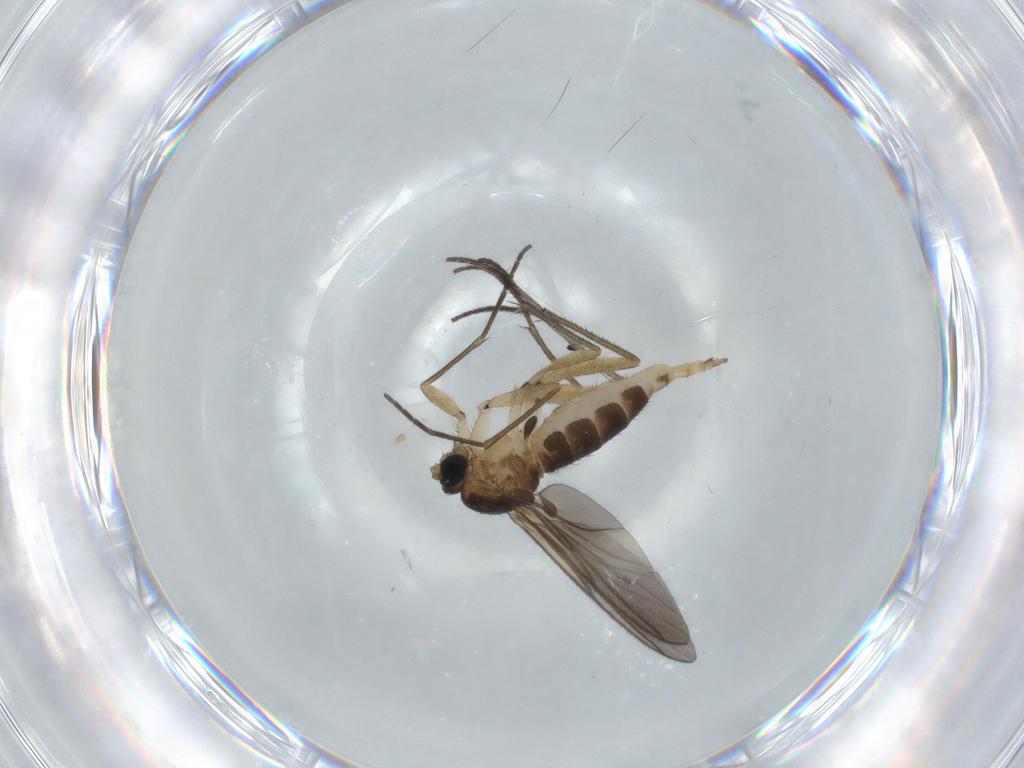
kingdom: Animalia
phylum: Arthropoda
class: Insecta
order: Diptera
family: Sciaridae
